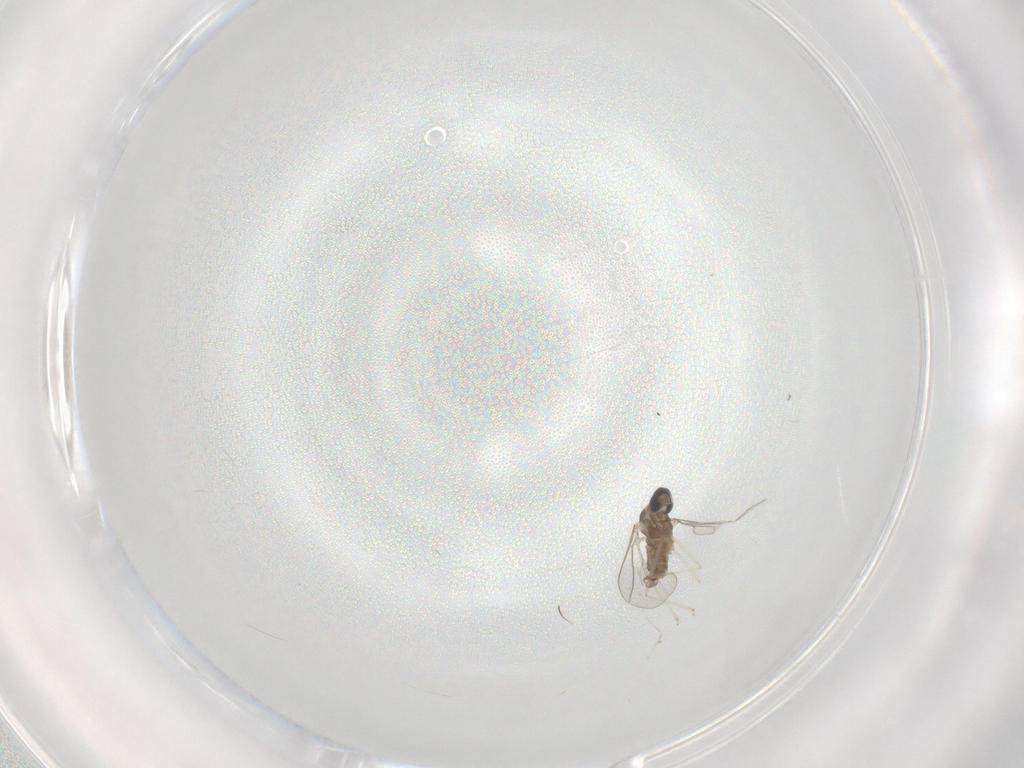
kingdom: Animalia
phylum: Arthropoda
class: Insecta
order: Diptera
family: Cecidomyiidae
